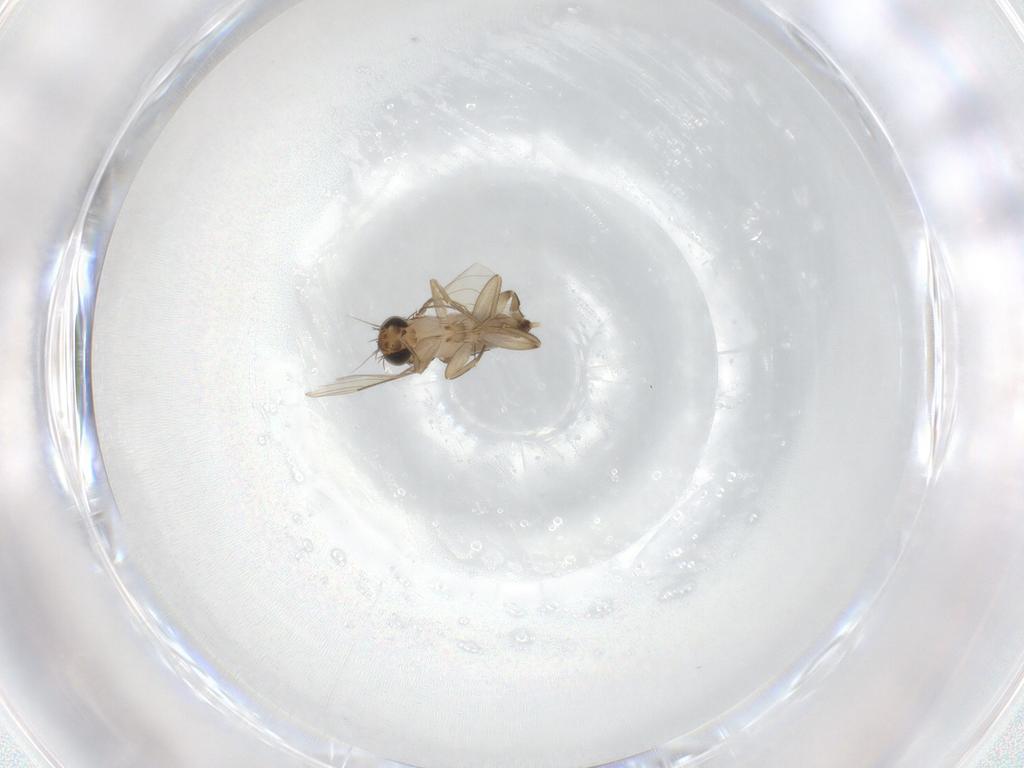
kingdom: Animalia
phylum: Arthropoda
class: Insecta
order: Diptera
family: Phoridae
